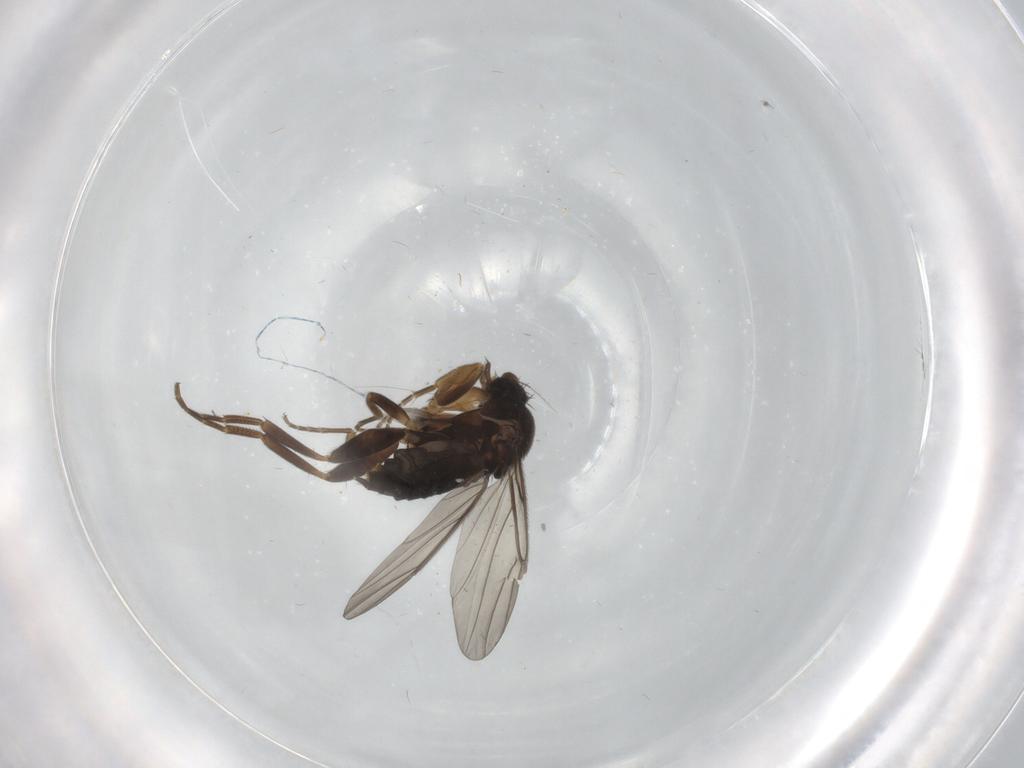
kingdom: Animalia
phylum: Arthropoda
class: Insecta
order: Diptera
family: Phoridae
